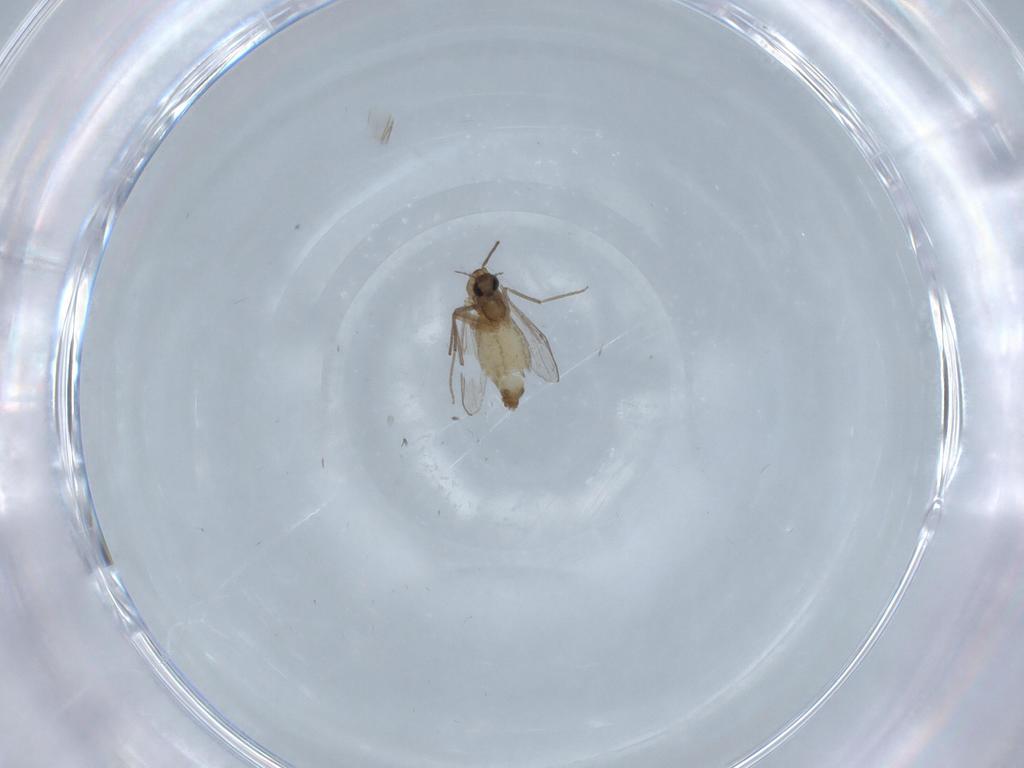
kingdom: Animalia
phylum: Arthropoda
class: Insecta
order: Diptera
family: Chironomidae
